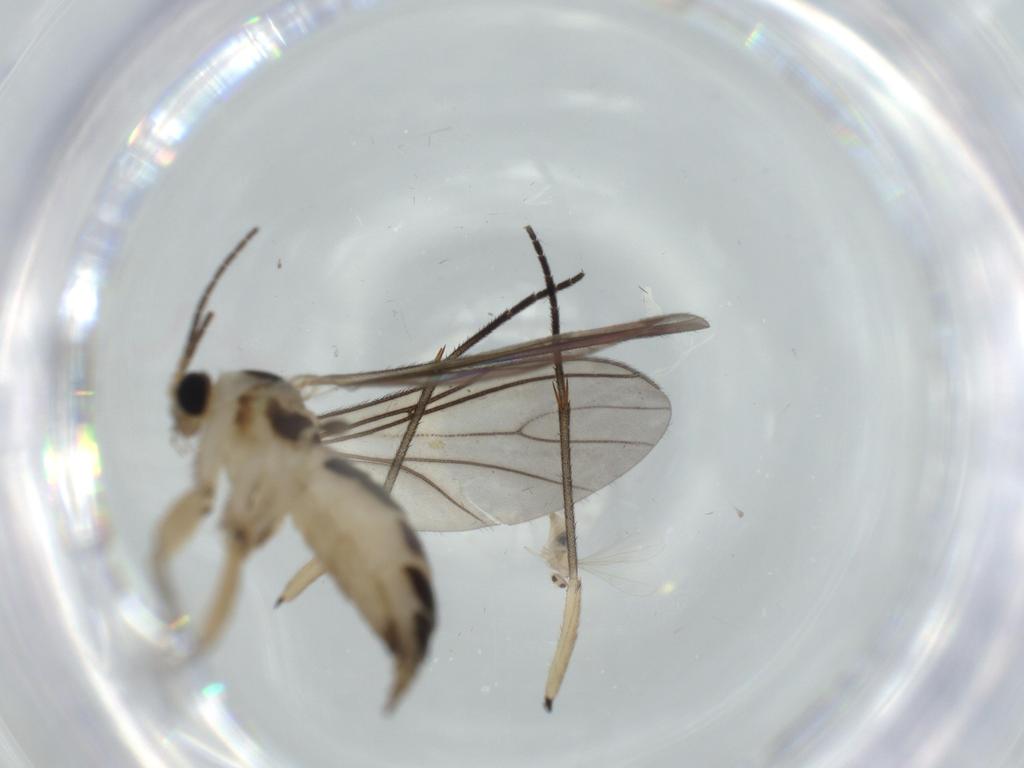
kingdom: Animalia
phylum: Arthropoda
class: Insecta
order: Diptera
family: Sciaridae
